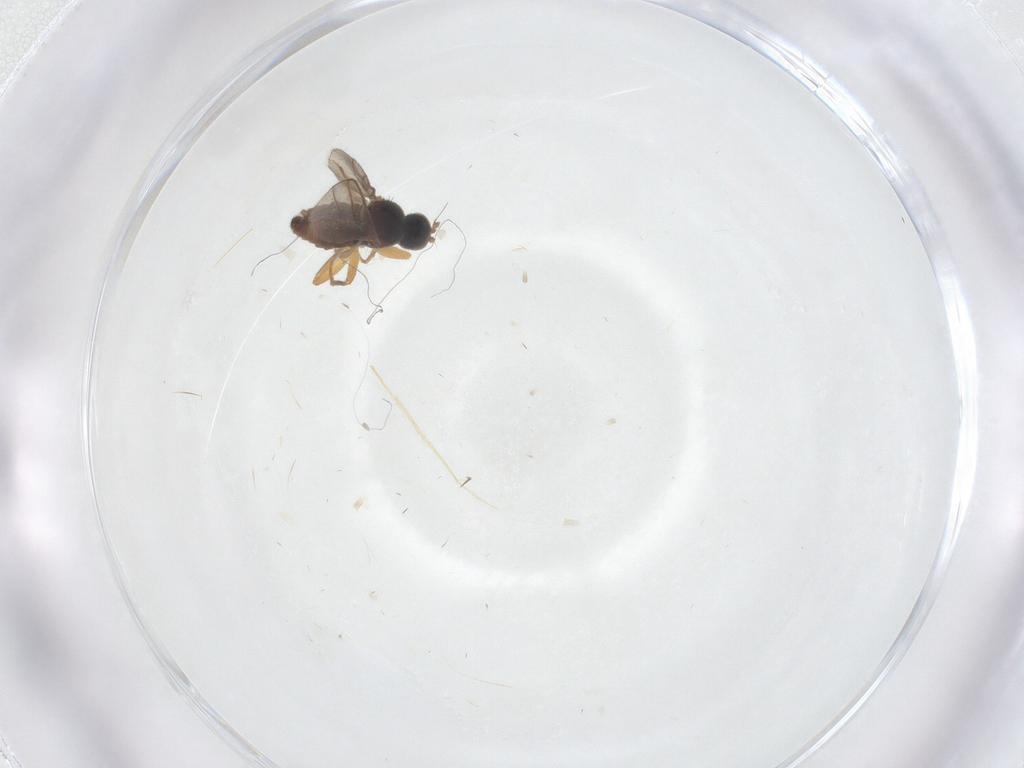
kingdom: Animalia
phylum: Arthropoda
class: Insecta
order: Diptera
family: Hybotidae
